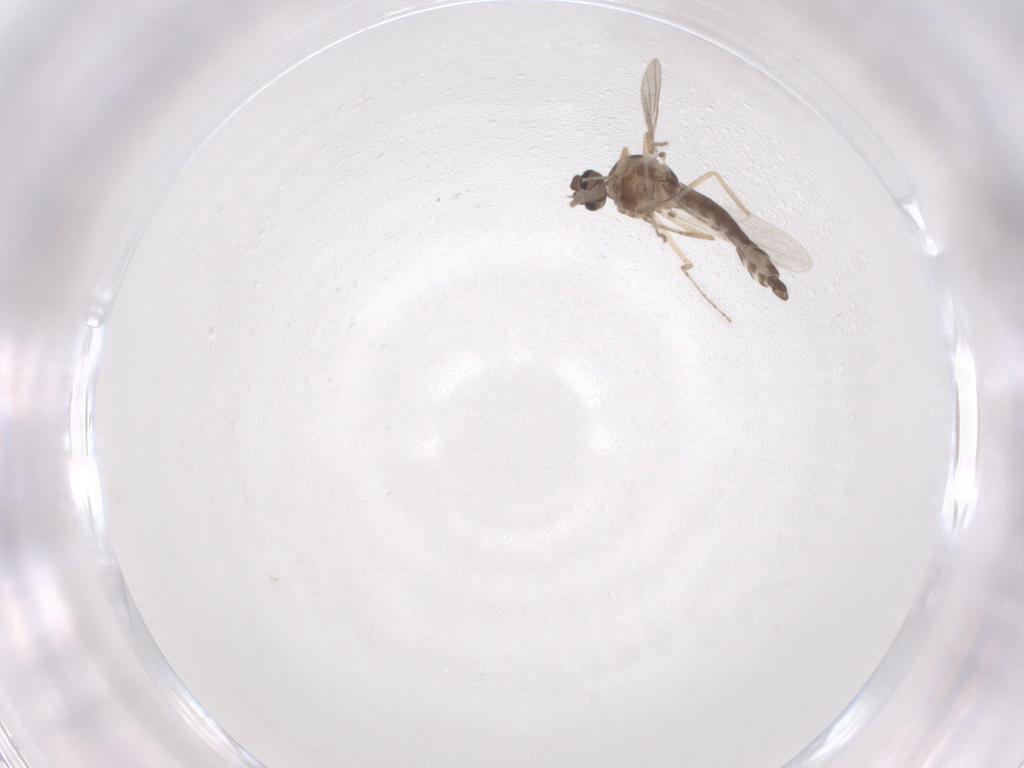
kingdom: Animalia
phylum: Arthropoda
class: Insecta
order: Diptera
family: Ceratopogonidae
